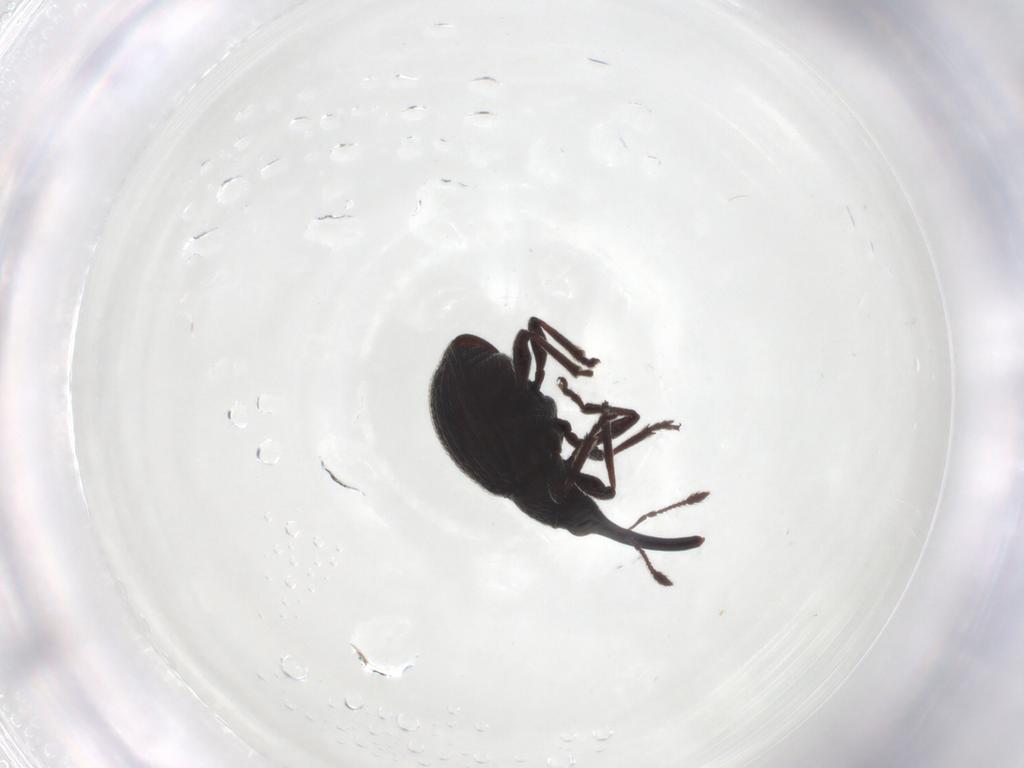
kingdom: Animalia
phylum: Arthropoda
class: Insecta
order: Coleoptera
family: Brentidae
